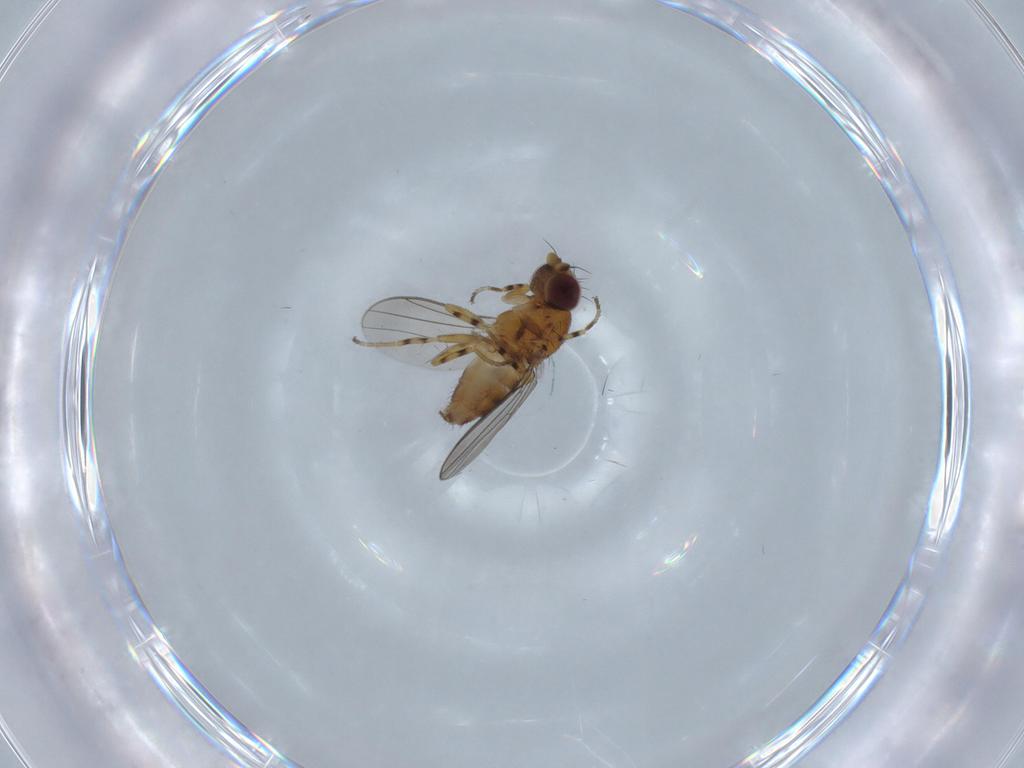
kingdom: Animalia
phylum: Arthropoda
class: Insecta
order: Diptera
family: Chloropidae
